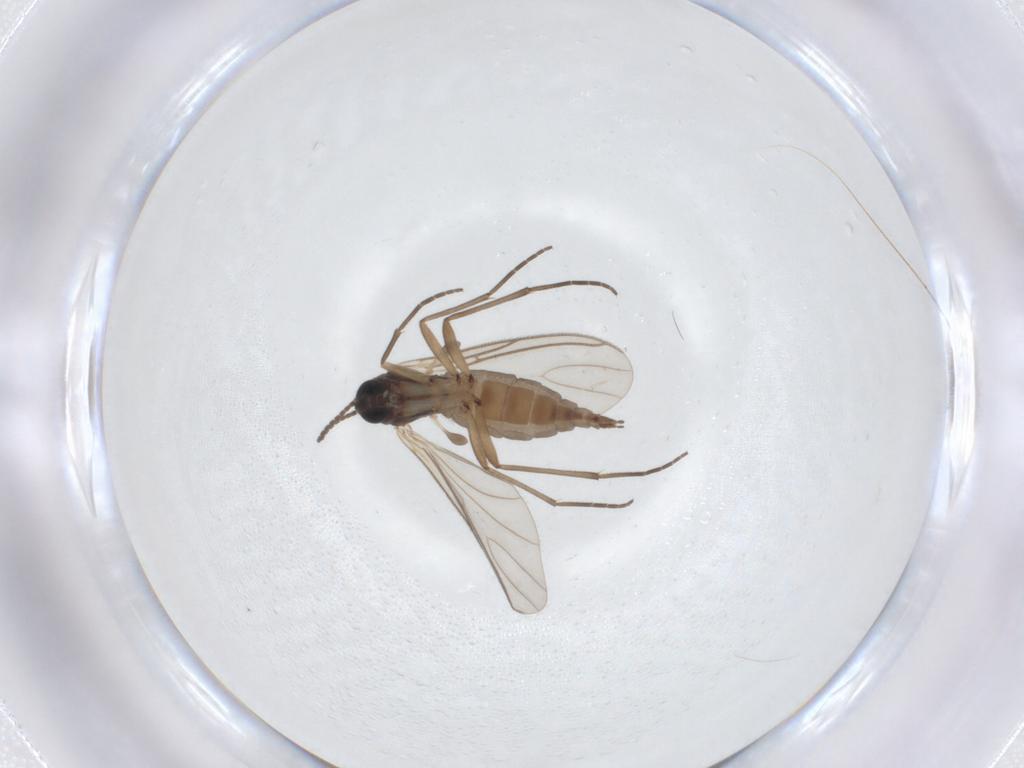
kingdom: Animalia
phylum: Arthropoda
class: Insecta
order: Diptera
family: Sciaridae
